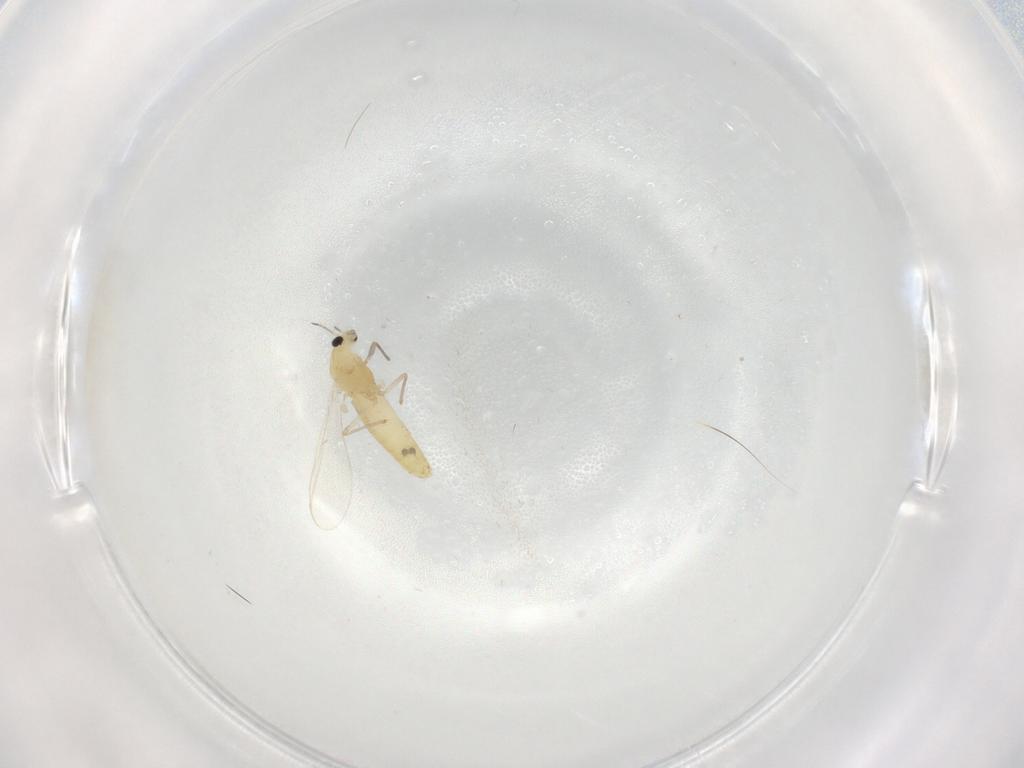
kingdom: Animalia
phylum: Arthropoda
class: Insecta
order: Diptera
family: Chironomidae
